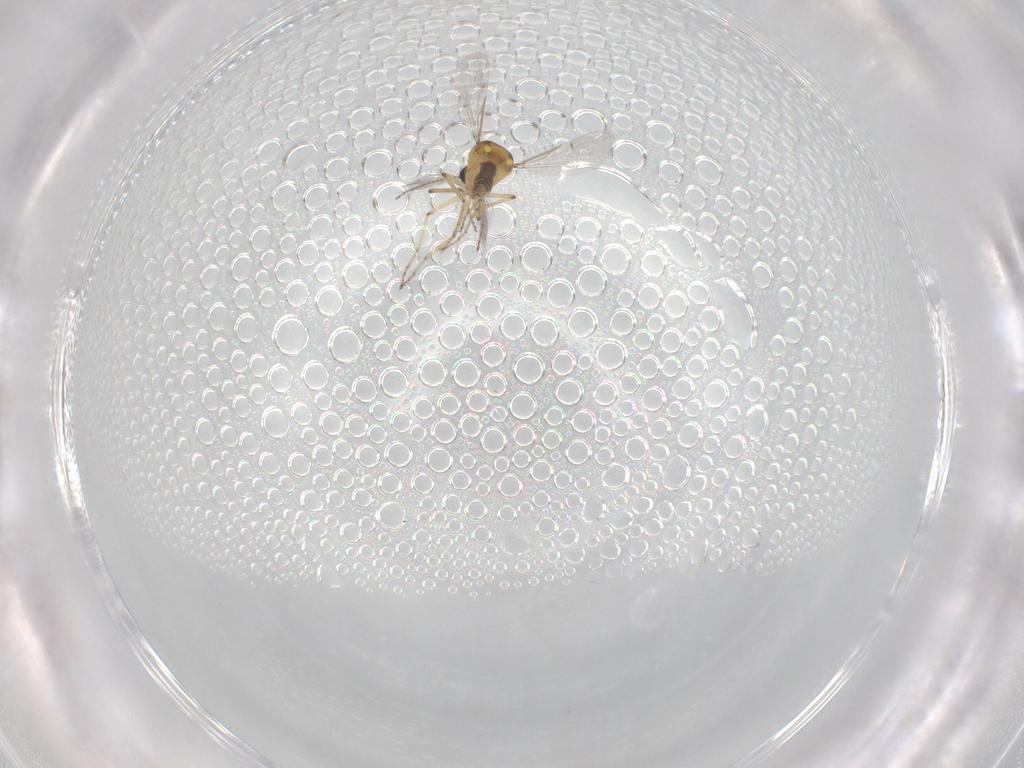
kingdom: Animalia
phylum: Arthropoda
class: Insecta
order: Diptera
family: Ceratopogonidae
